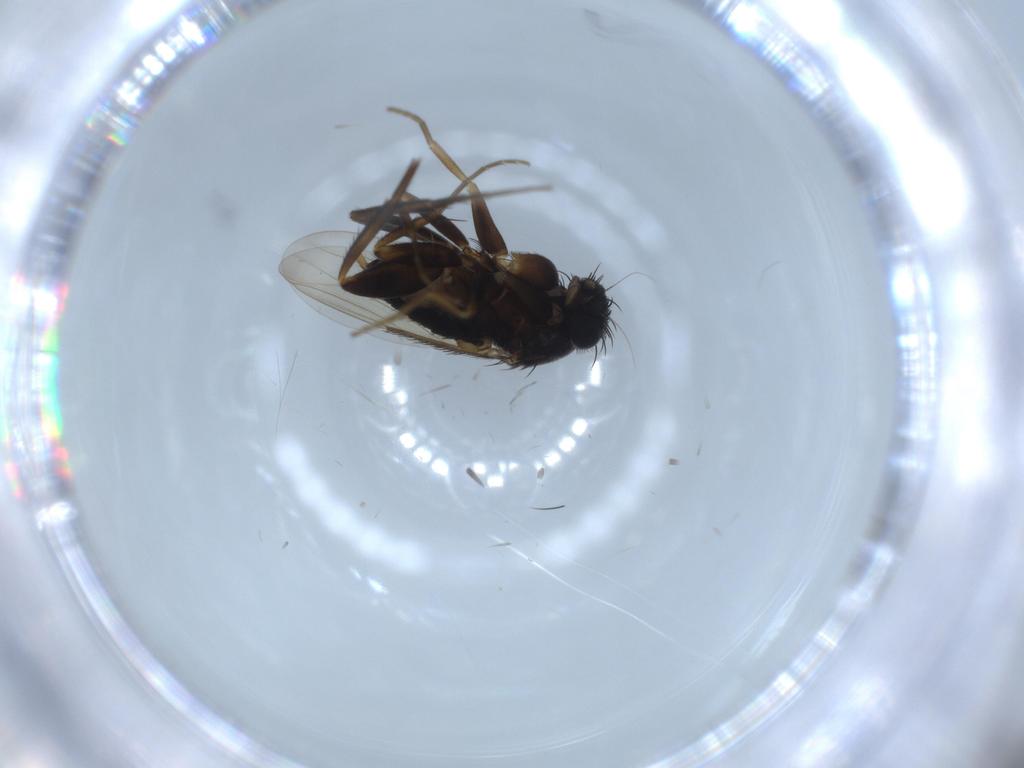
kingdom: Animalia
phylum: Arthropoda
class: Insecta
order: Diptera
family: Phoridae
